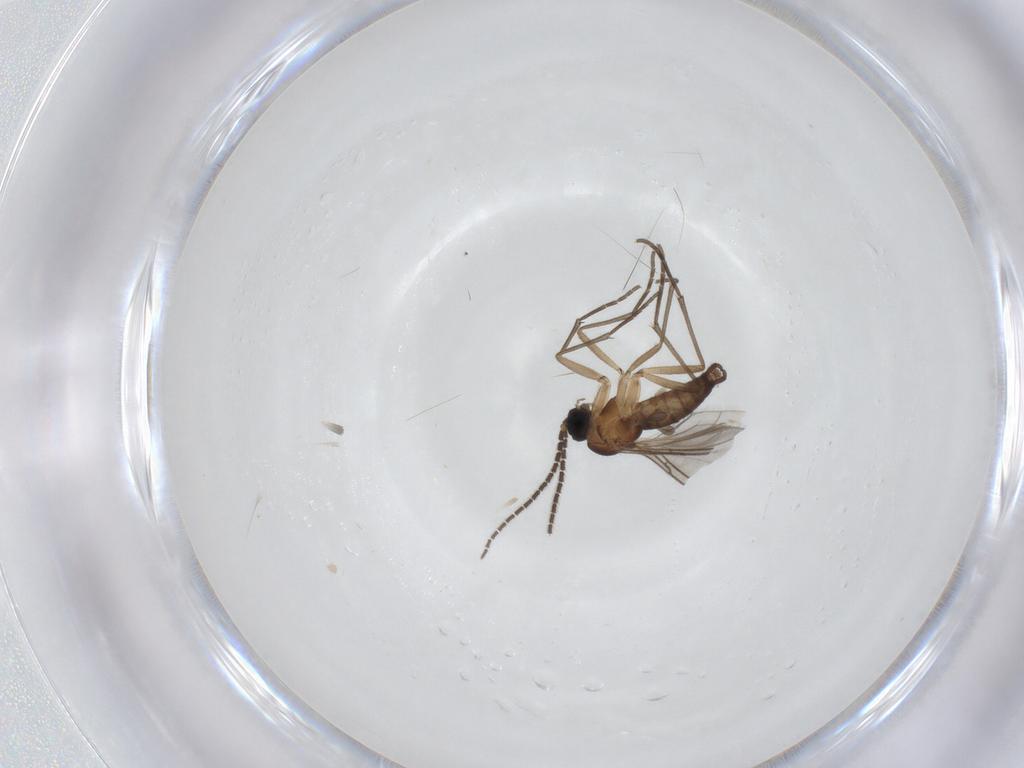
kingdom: Animalia
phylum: Arthropoda
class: Insecta
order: Diptera
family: Sciaridae
